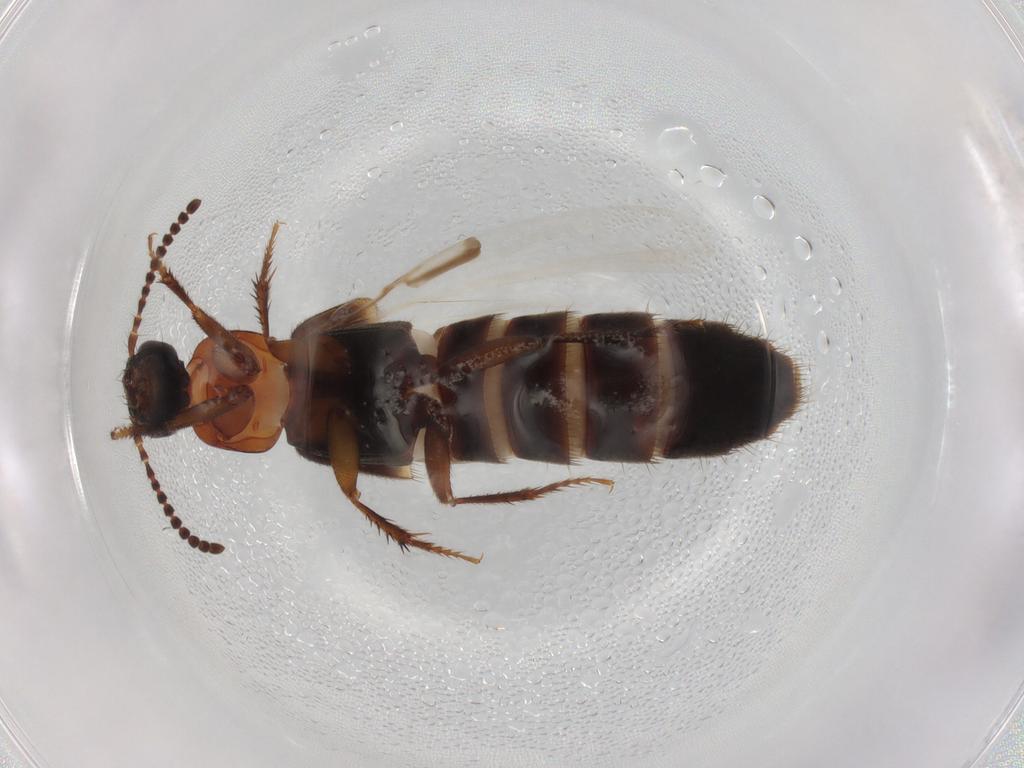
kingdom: Animalia
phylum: Arthropoda
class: Insecta
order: Coleoptera
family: Staphylinidae
